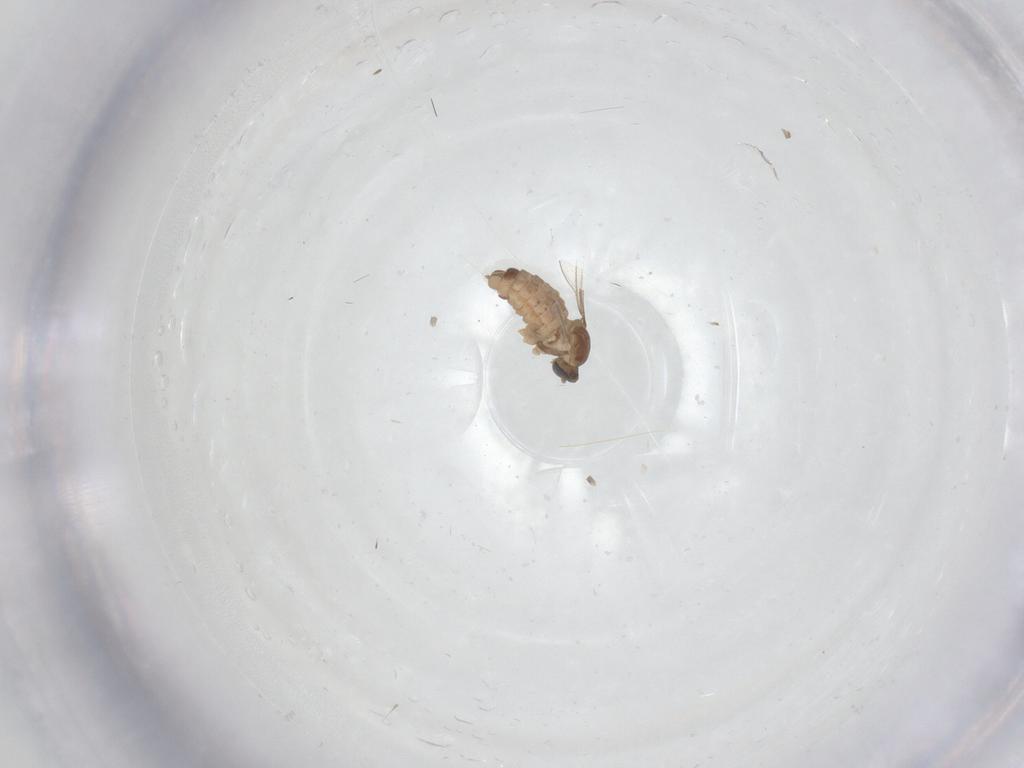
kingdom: Animalia
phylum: Arthropoda
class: Insecta
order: Diptera
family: Cecidomyiidae
